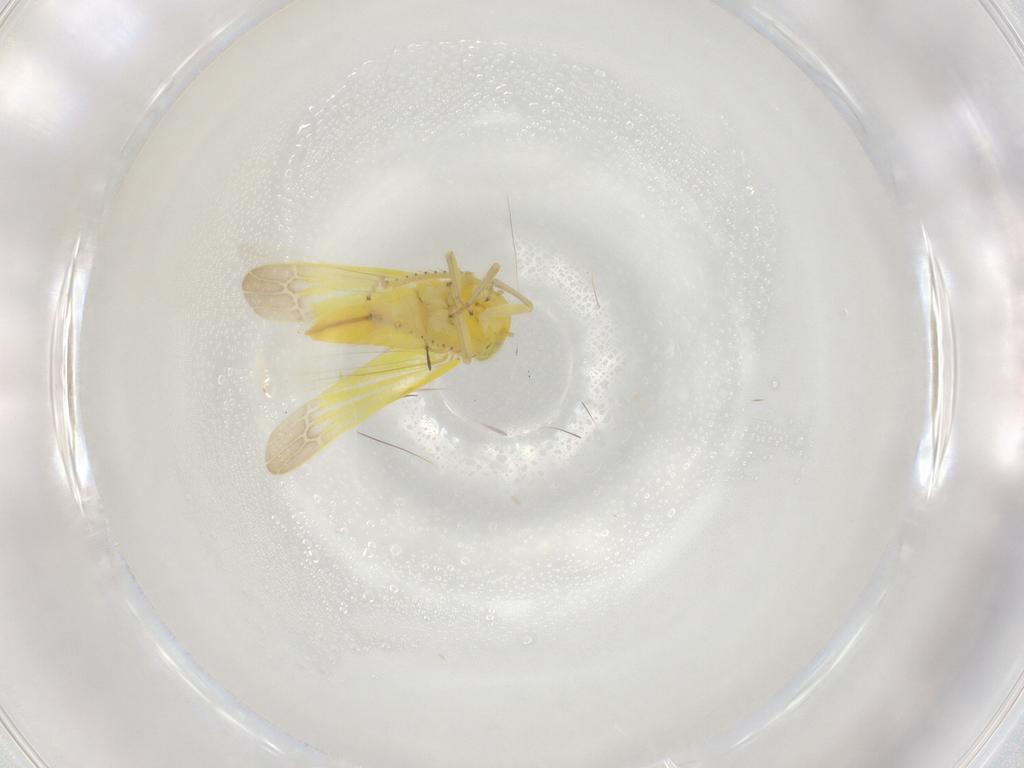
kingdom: Animalia
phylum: Arthropoda
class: Insecta
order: Hemiptera
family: Cicadellidae
